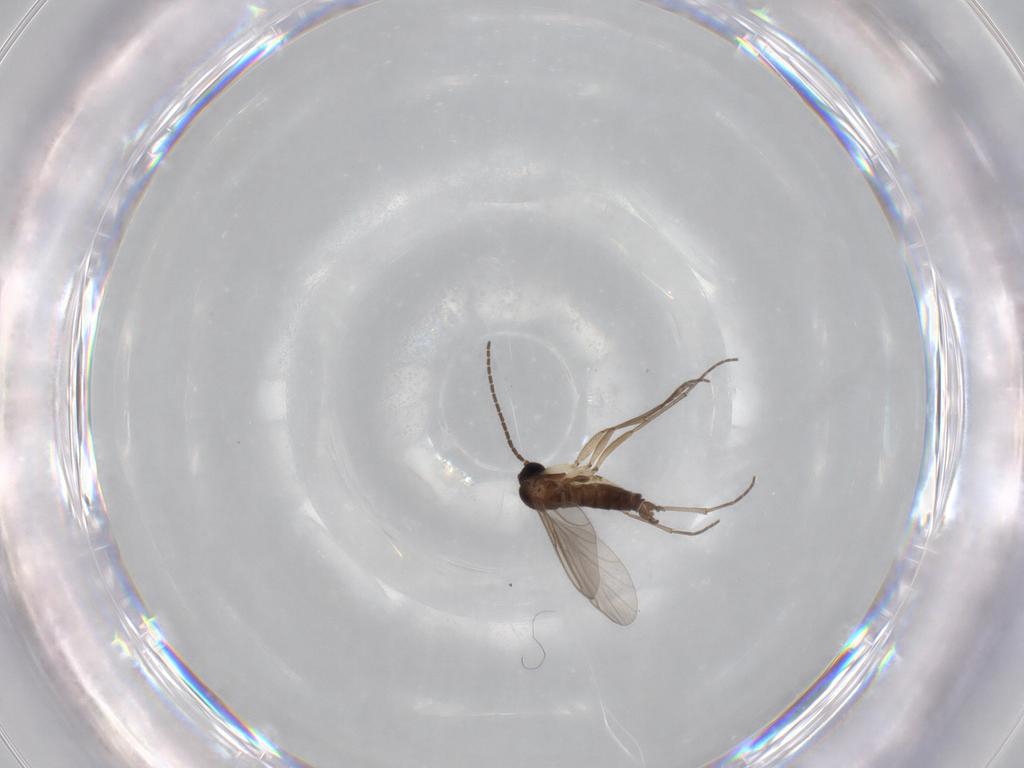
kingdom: Animalia
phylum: Arthropoda
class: Insecta
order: Diptera
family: Sciaridae
